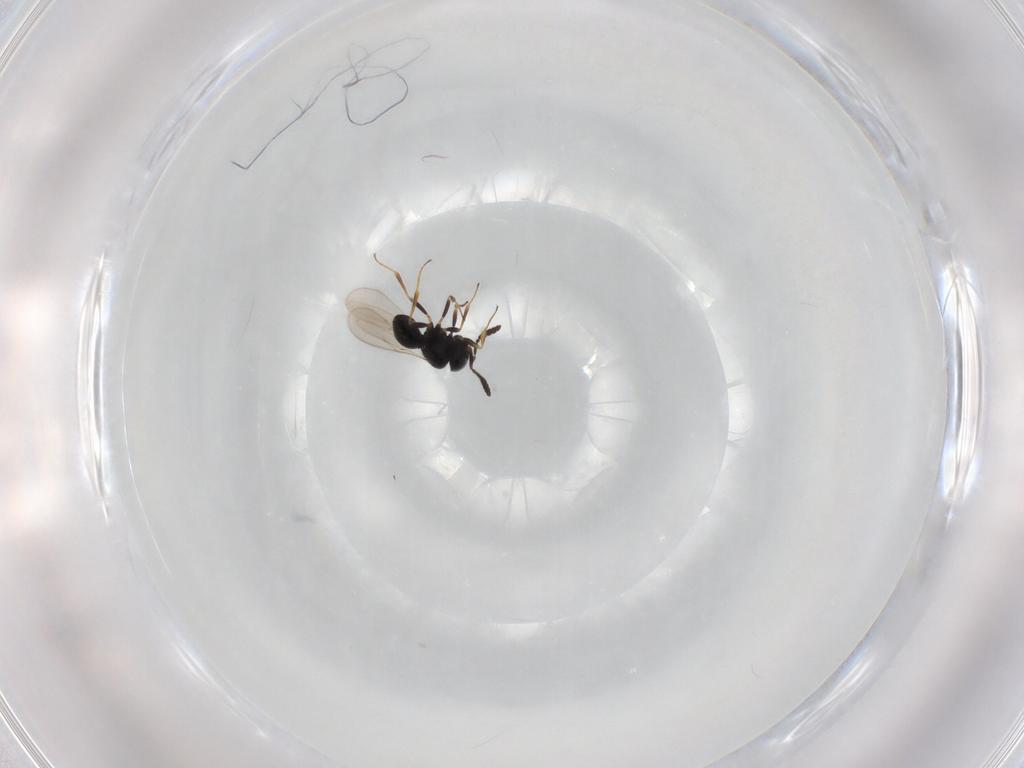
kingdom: Animalia
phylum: Arthropoda
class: Insecta
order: Hymenoptera
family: Scelionidae
